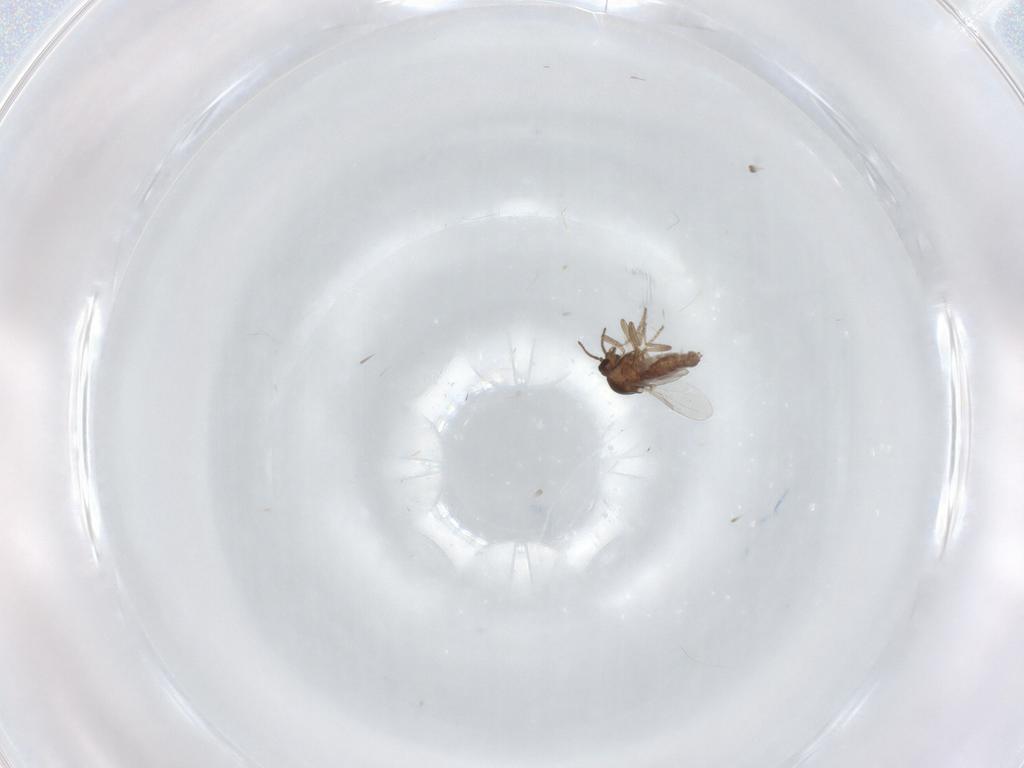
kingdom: Animalia
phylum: Arthropoda
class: Insecta
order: Diptera
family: Ceratopogonidae
